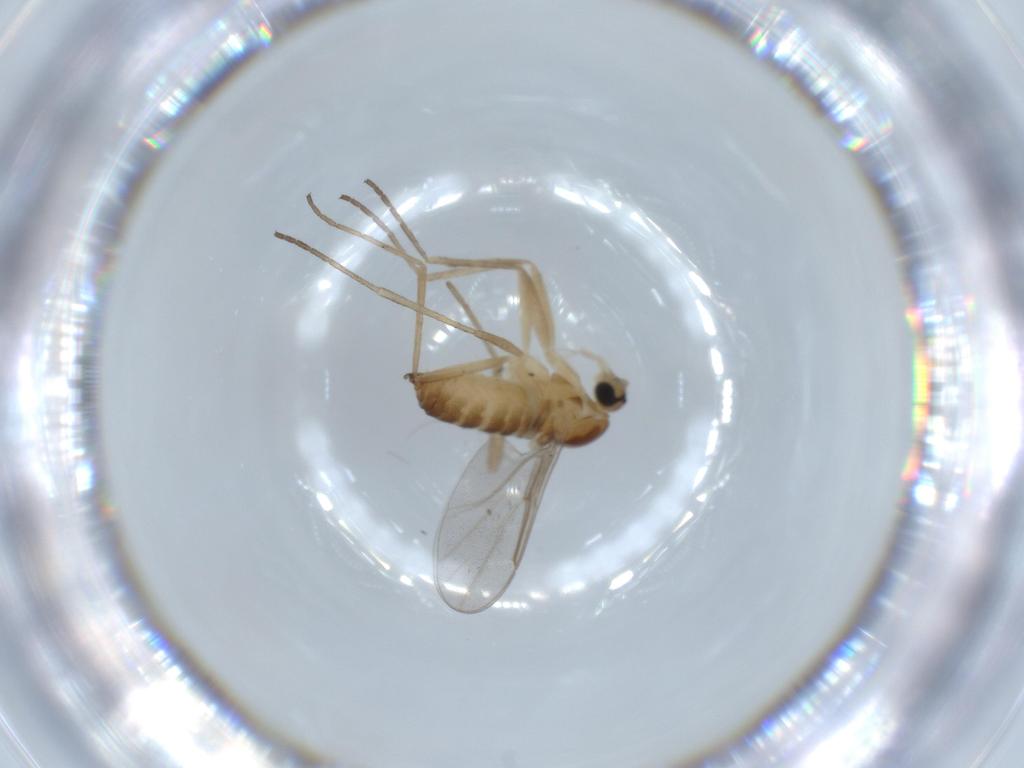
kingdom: Animalia
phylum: Arthropoda
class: Insecta
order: Diptera
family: Cecidomyiidae
